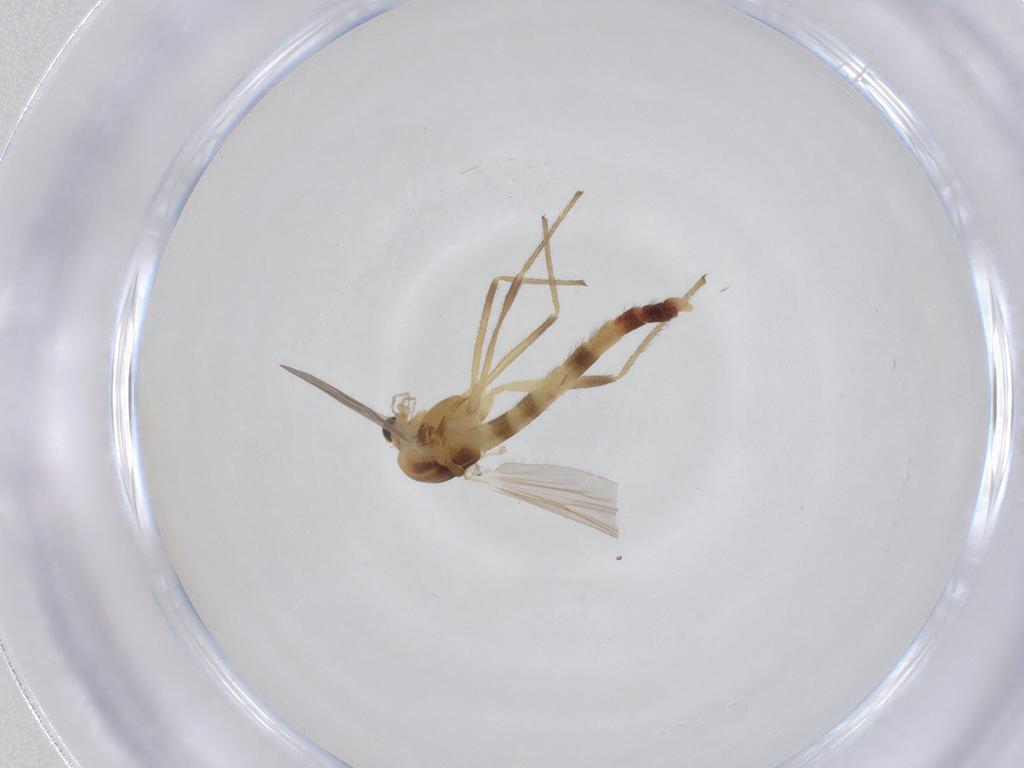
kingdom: Animalia
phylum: Arthropoda
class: Insecta
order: Diptera
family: Chironomidae
